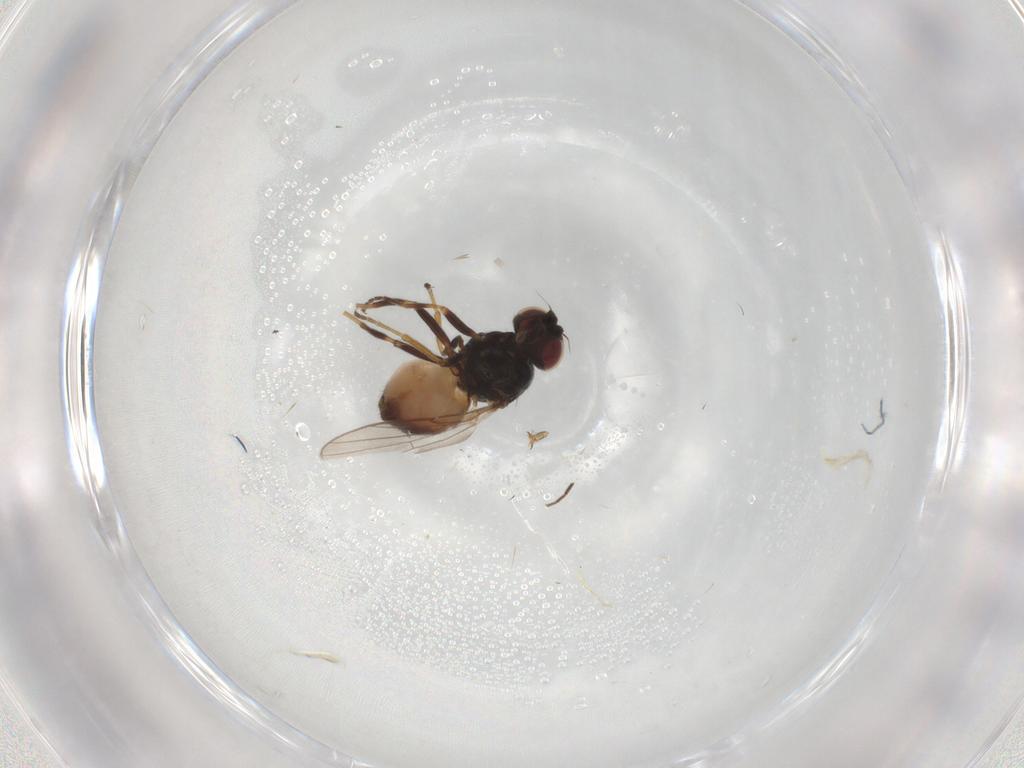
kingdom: Animalia
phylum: Arthropoda
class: Insecta
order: Diptera
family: Chloropidae
